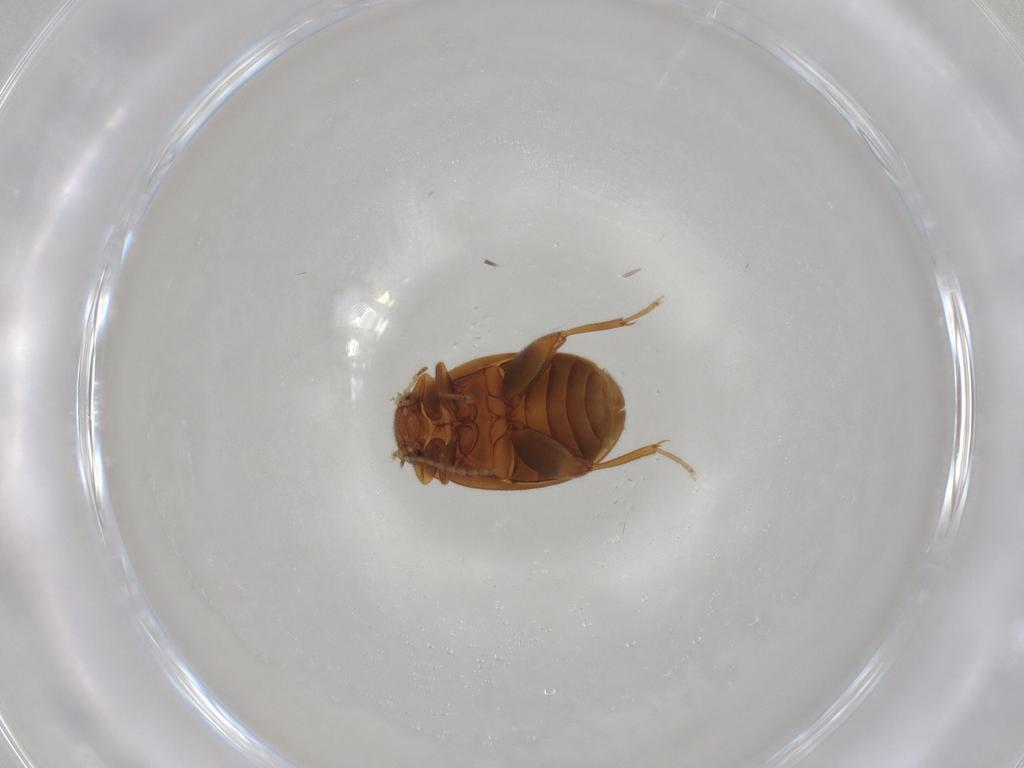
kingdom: Animalia
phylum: Arthropoda
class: Insecta
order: Coleoptera
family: Scirtidae
